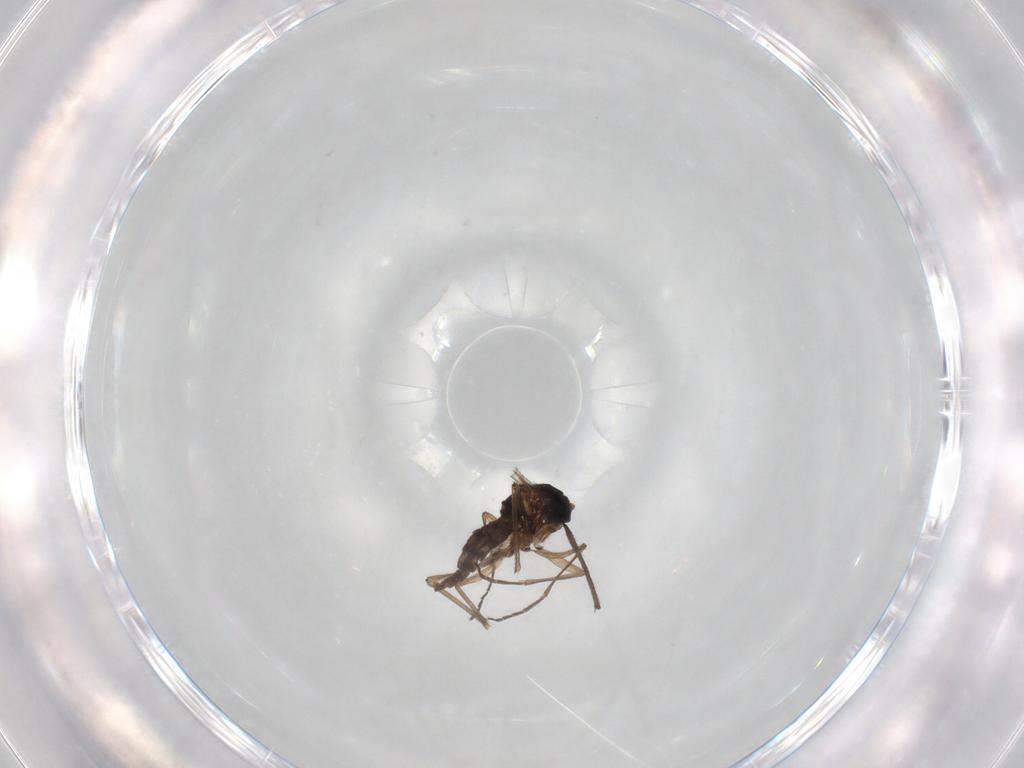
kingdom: Animalia
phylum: Arthropoda
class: Insecta
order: Diptera
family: Sciaridae
